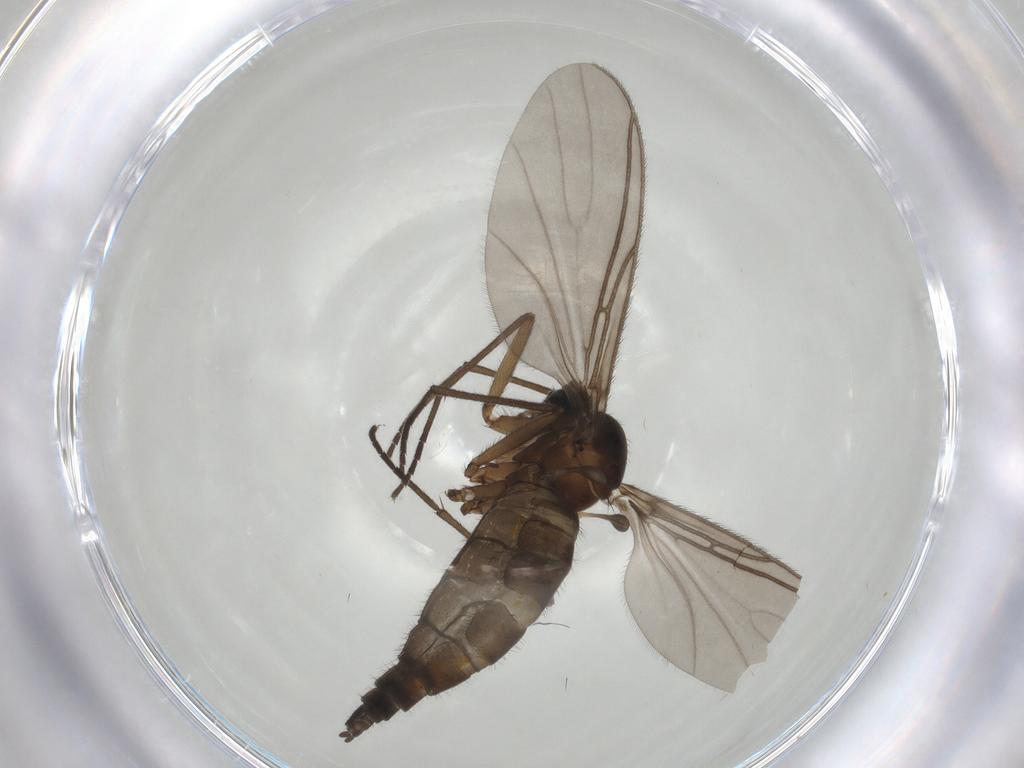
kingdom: Animalia
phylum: Arthropoda
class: Insecta
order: Diptera
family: Sciaridae
